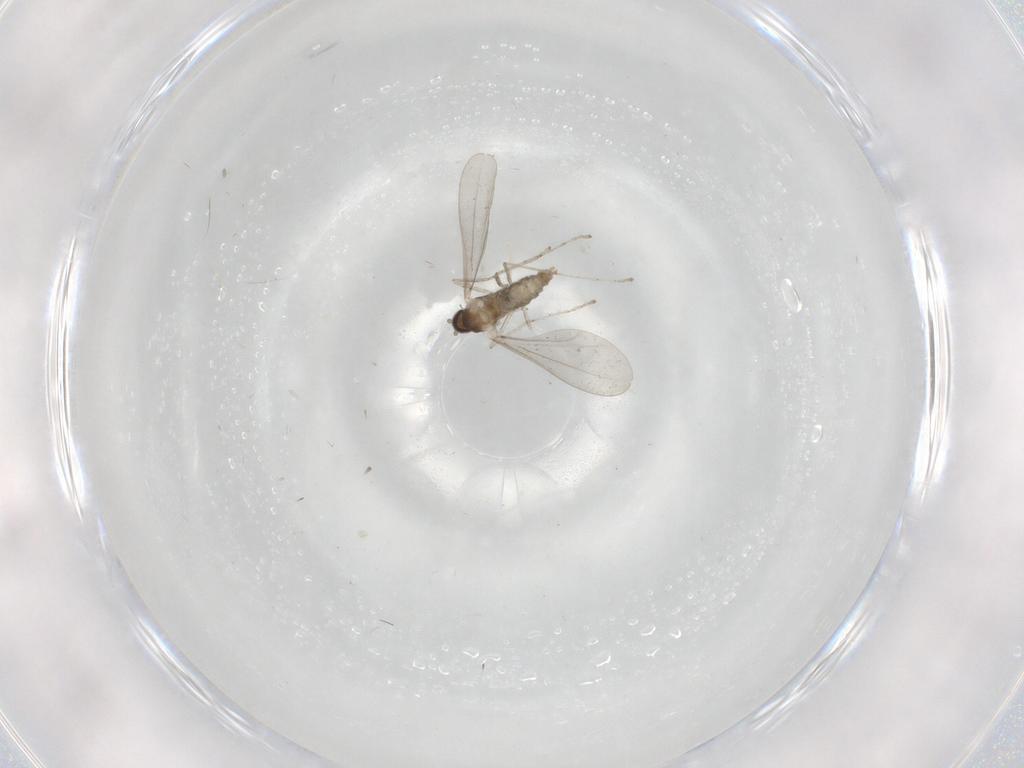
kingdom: Animalia
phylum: Arthropoda
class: Insecta
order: Diptera
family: Cecidomyiidae
